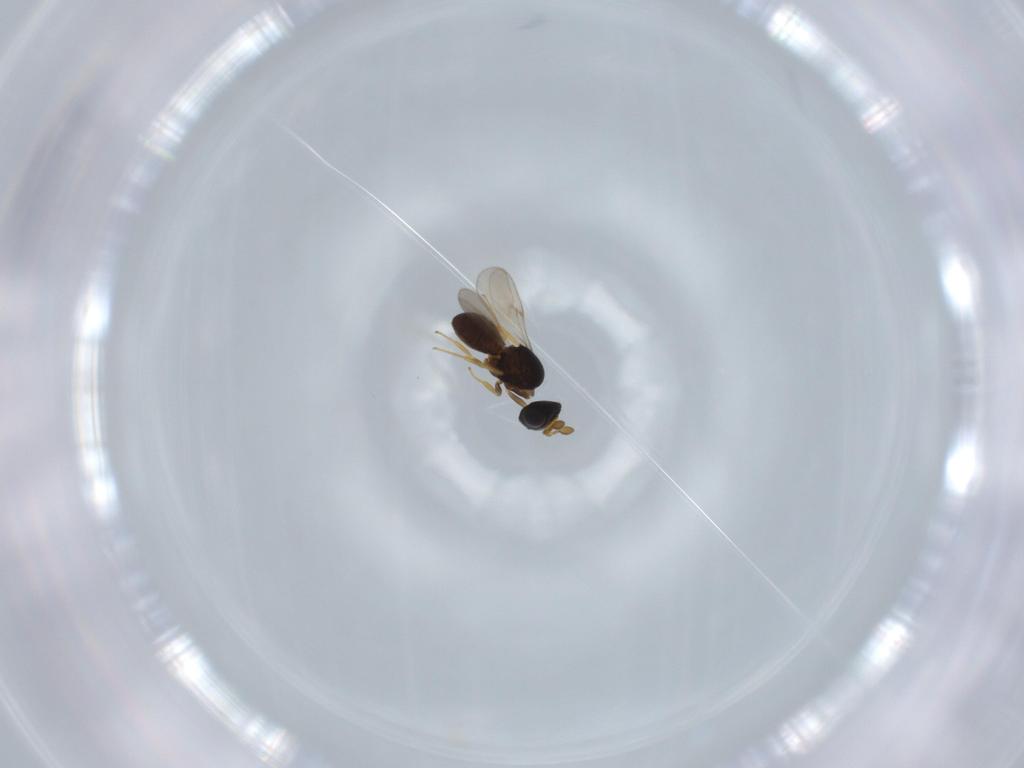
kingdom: Animalia
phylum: Arthropoda
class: Insecta
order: Hymenoptera
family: Scelionidae
